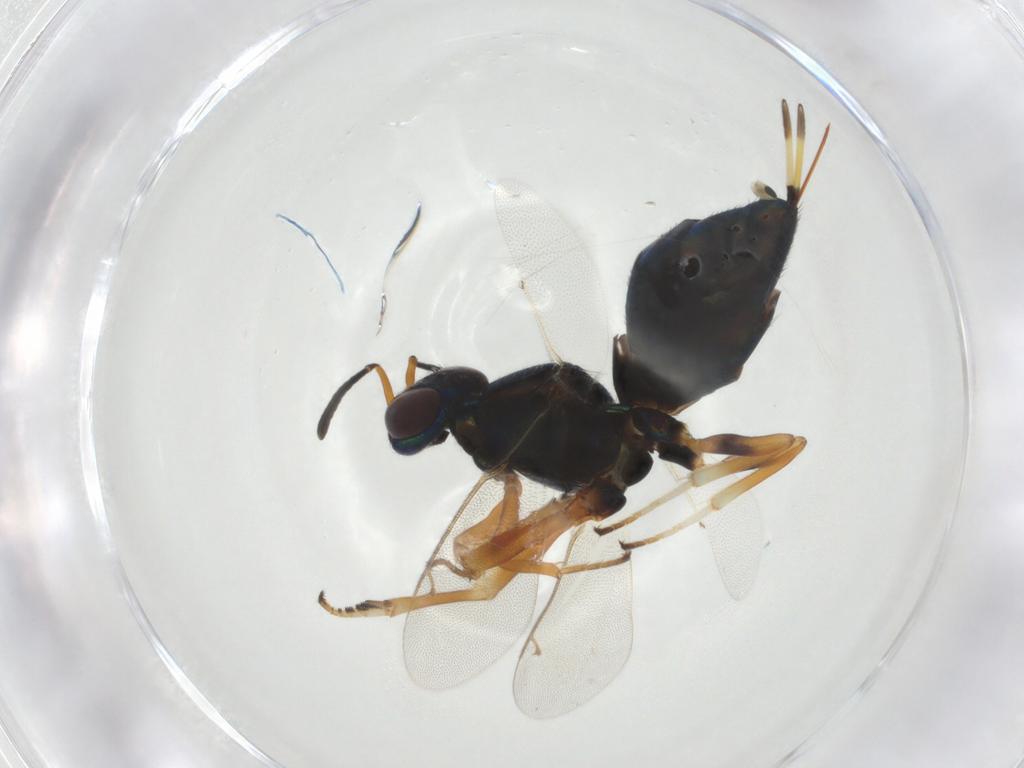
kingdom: Animalia
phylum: Arthropoda
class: Insecta
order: Hymenoptera
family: Eupelmidae
